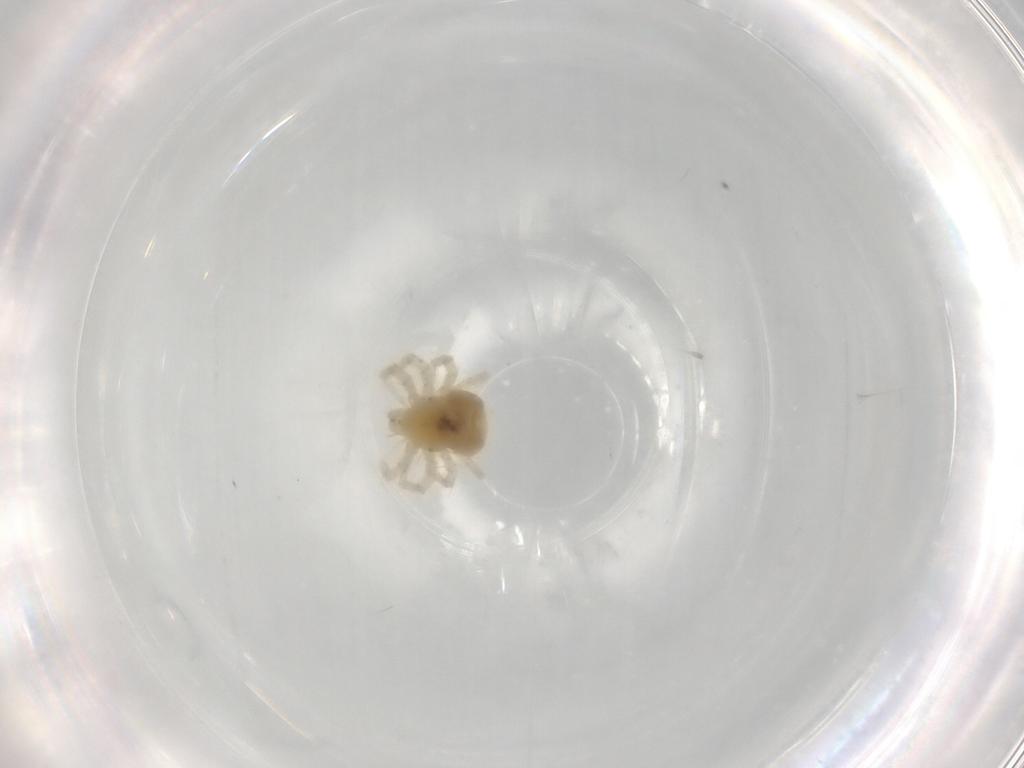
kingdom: Animalia
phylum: Arthropoda
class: Arachnida
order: Trombidiformes
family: Anystidae
